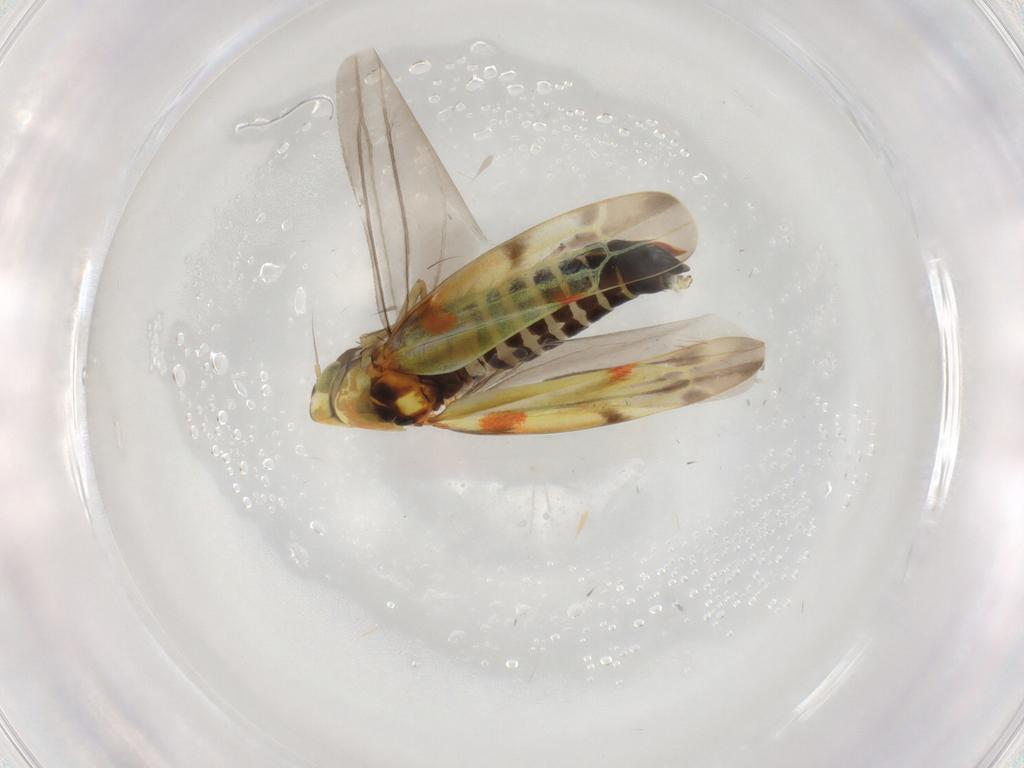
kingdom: Animalia
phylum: Arthropoda
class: Insecta
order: Hemiptera
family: Cicadellidae
